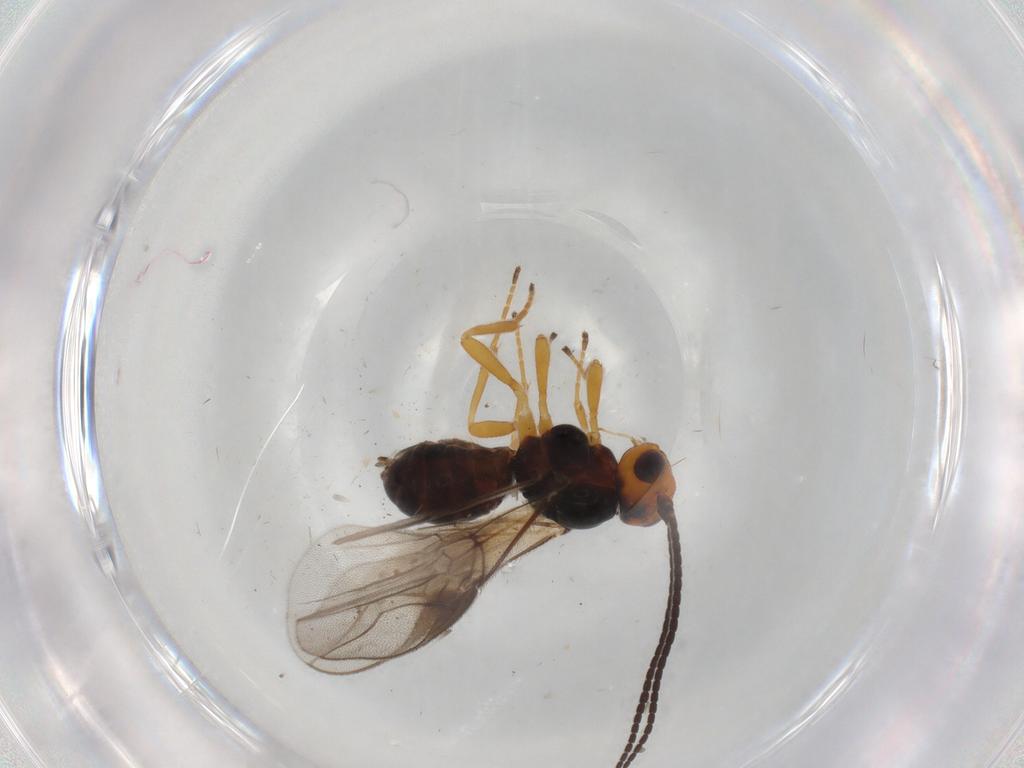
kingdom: Animalia
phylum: Arthropoda
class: Insecta
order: Hymenoptera
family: Braconidae
